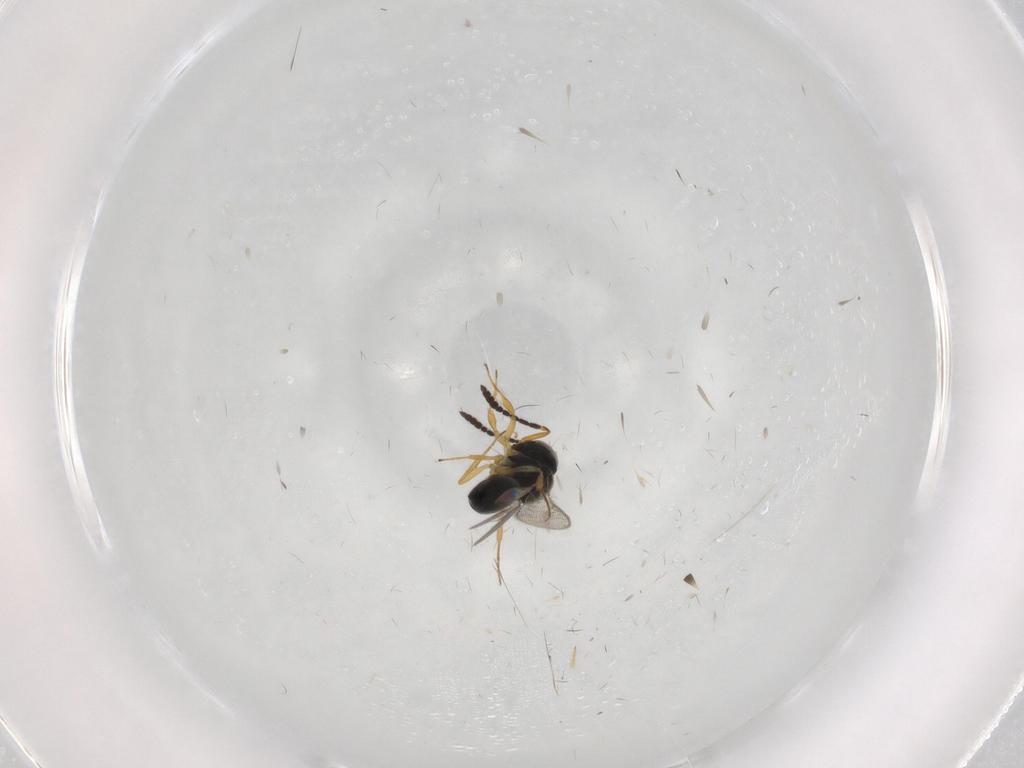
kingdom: Animalia
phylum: Arthropoda
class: Insecta
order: Hymenoptera
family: Scelionidae
